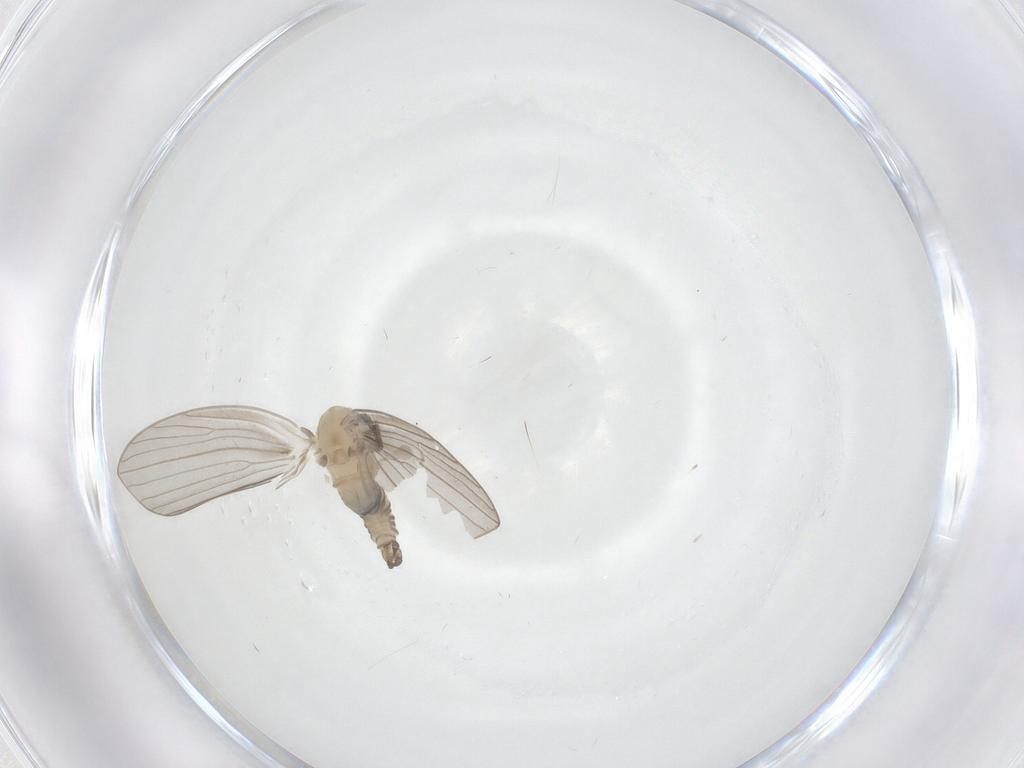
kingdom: Animalia
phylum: Arthropoda
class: Insecta
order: Diptera
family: Psychodidae
